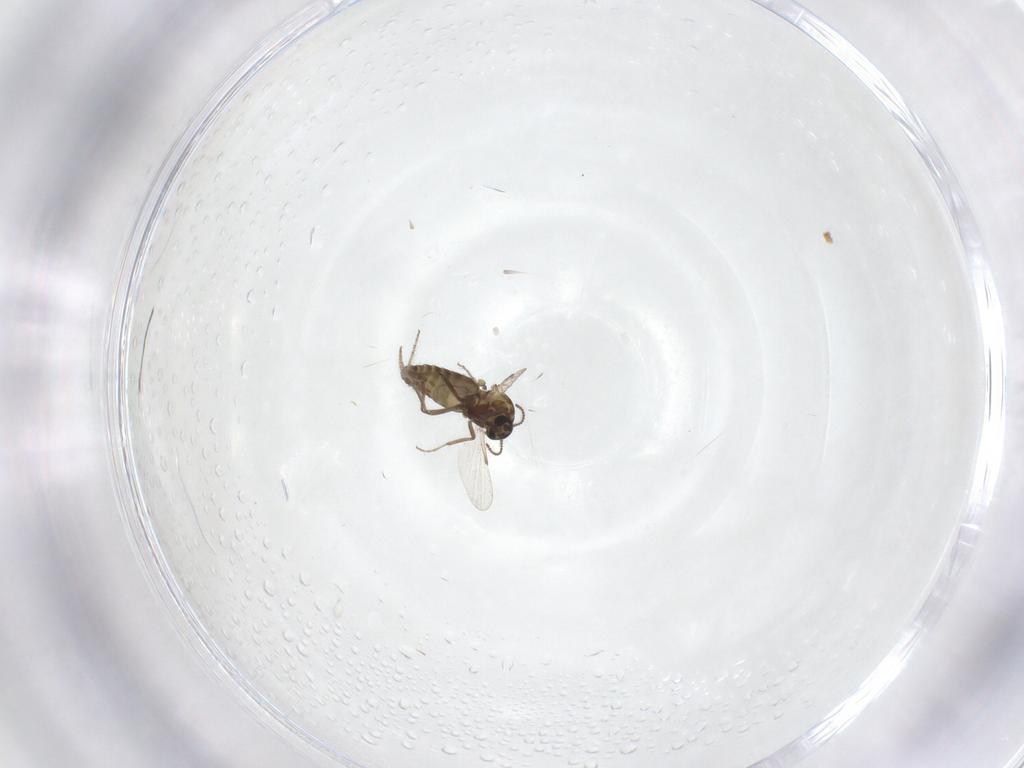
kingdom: Animalia
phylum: Arthropoda
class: Insecta
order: Diptera
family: Ceratopogonidae
